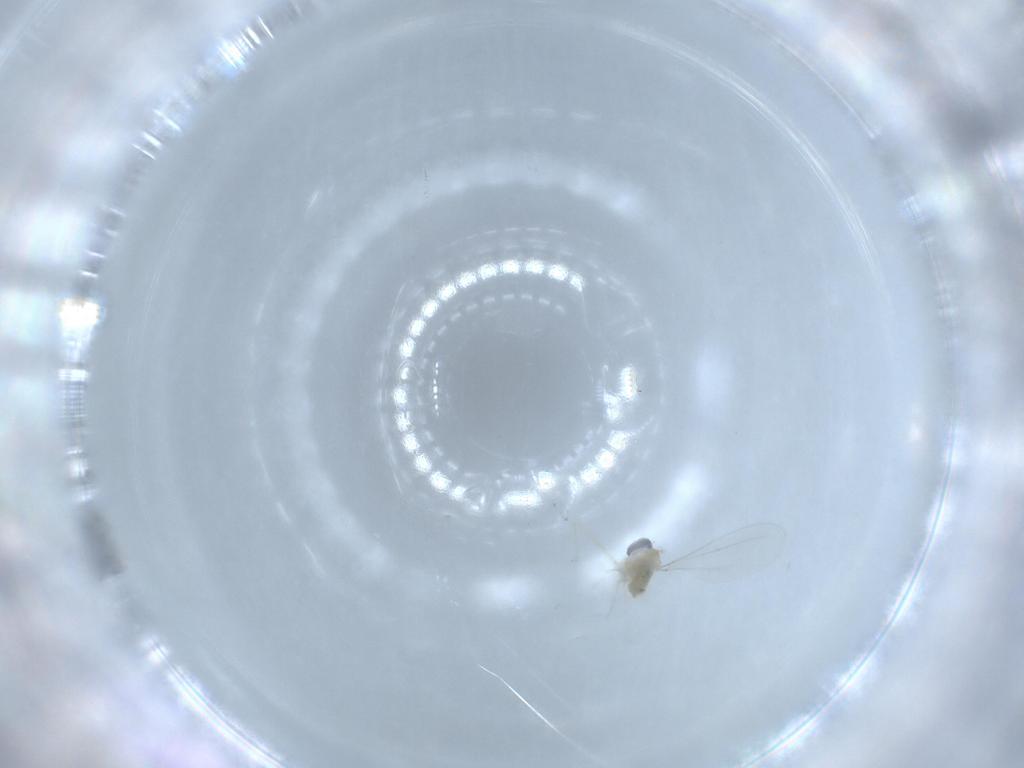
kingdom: Animalia
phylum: Arthropoda
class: Insecta
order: Diptera
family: Cecidomyiidae
